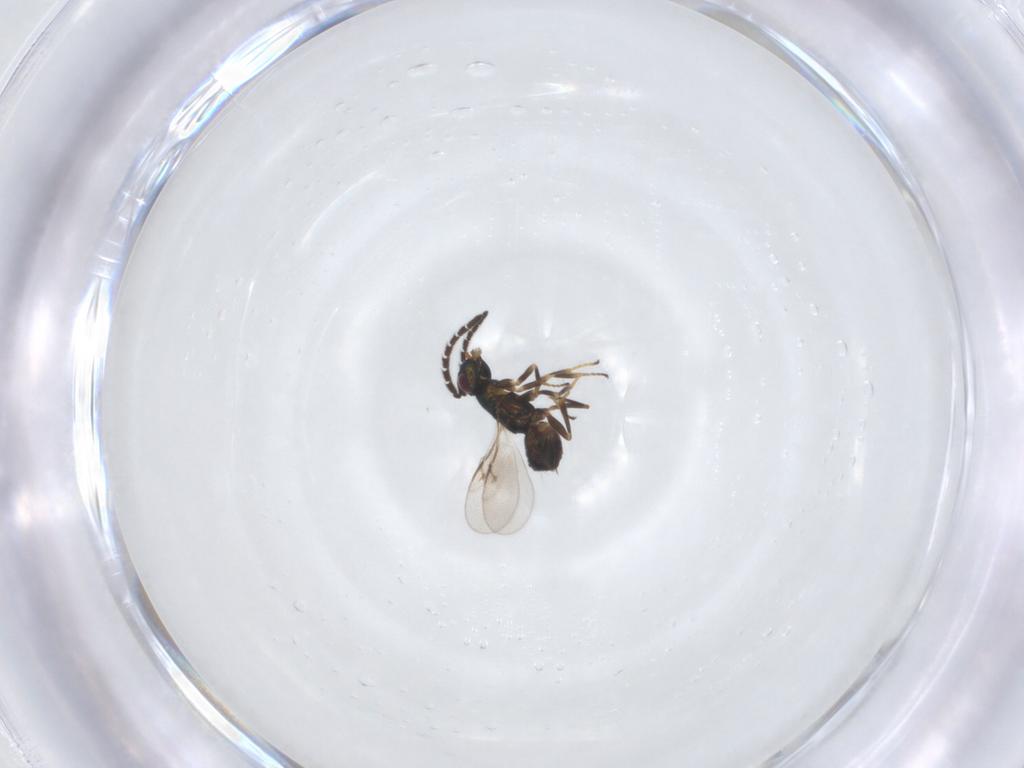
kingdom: Animalia
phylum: Arthropoda
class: Insecta
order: Hymenoptera
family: Encyrtidae
